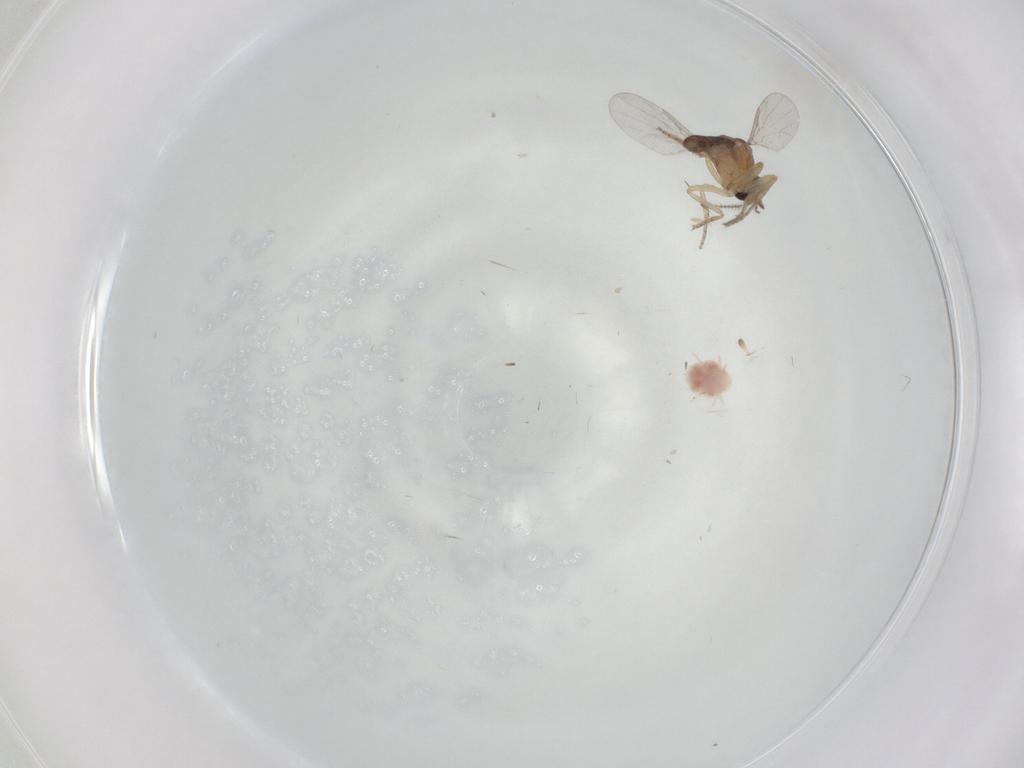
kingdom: Animalia
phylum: Arthropoda
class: Insecta
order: Diptera
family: Ceratopogonidae
